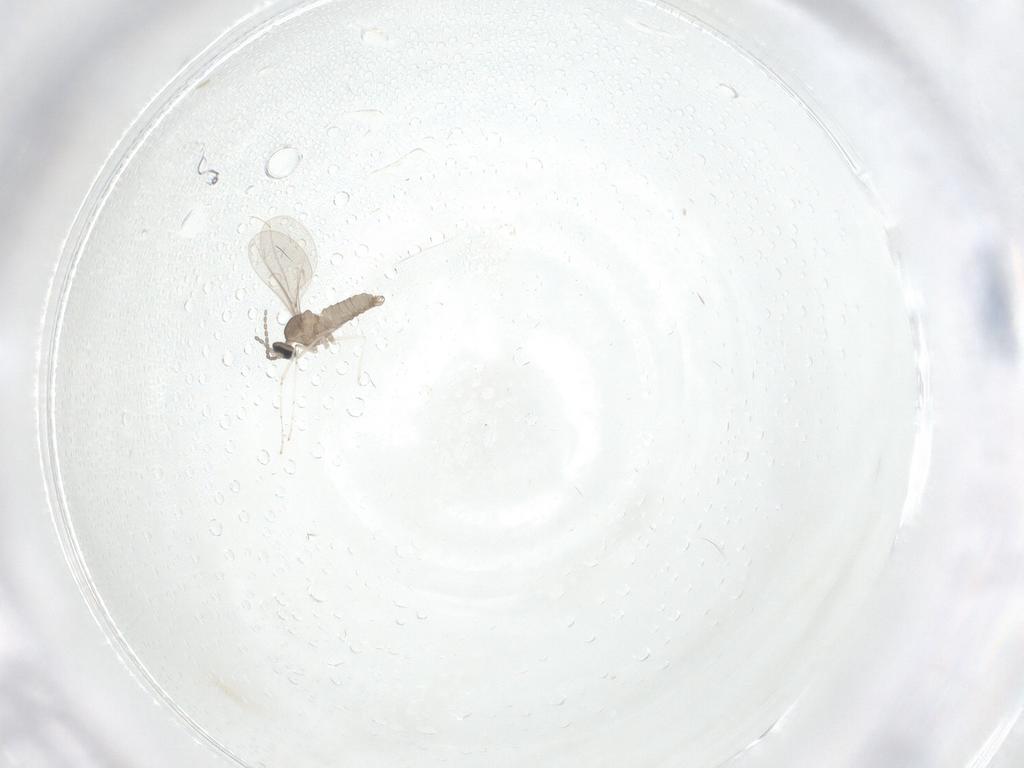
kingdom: Animalia
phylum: Arthropoda
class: Insecta
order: Diptera
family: Cecidomyiidae
